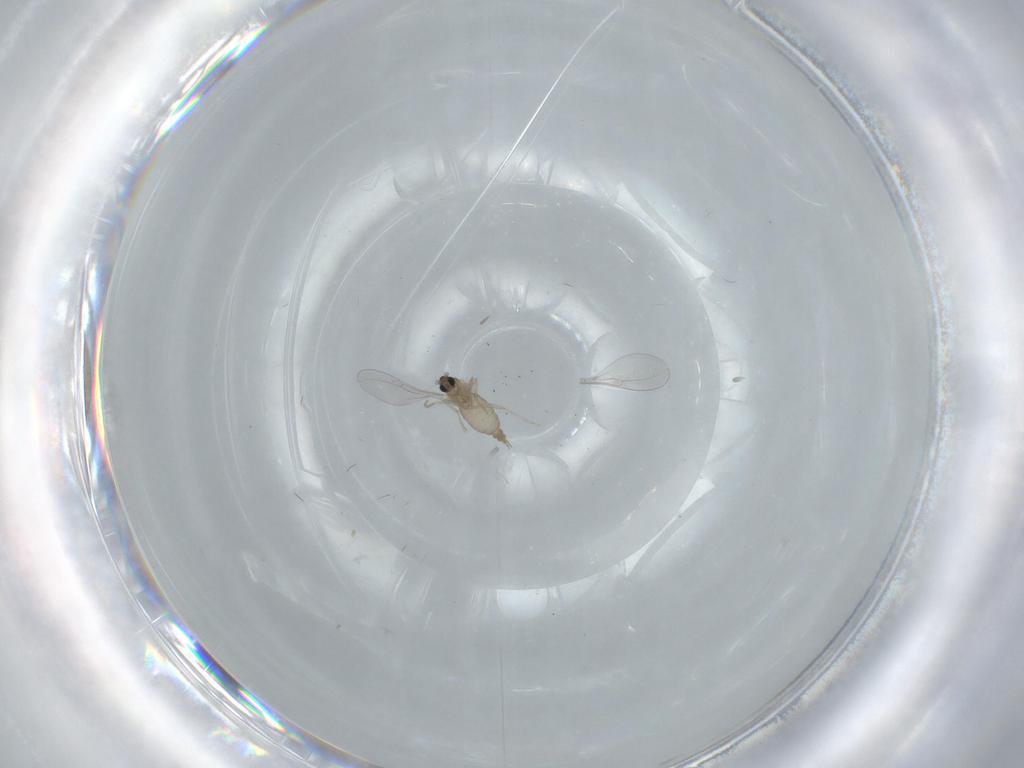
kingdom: Animalia
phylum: Arthropoda
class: Insecta
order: Diptera
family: Cecidomyiidae
